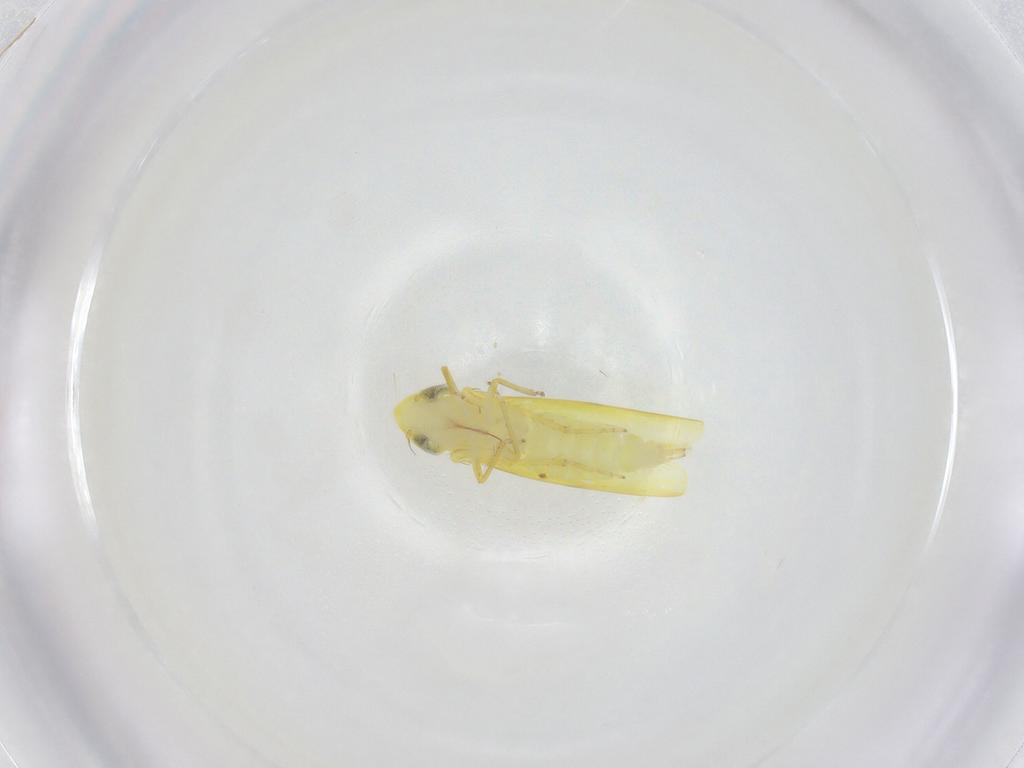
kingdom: Animalia
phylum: Arthropoda
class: Insecta
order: Hemiptera
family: Cicadellidae
